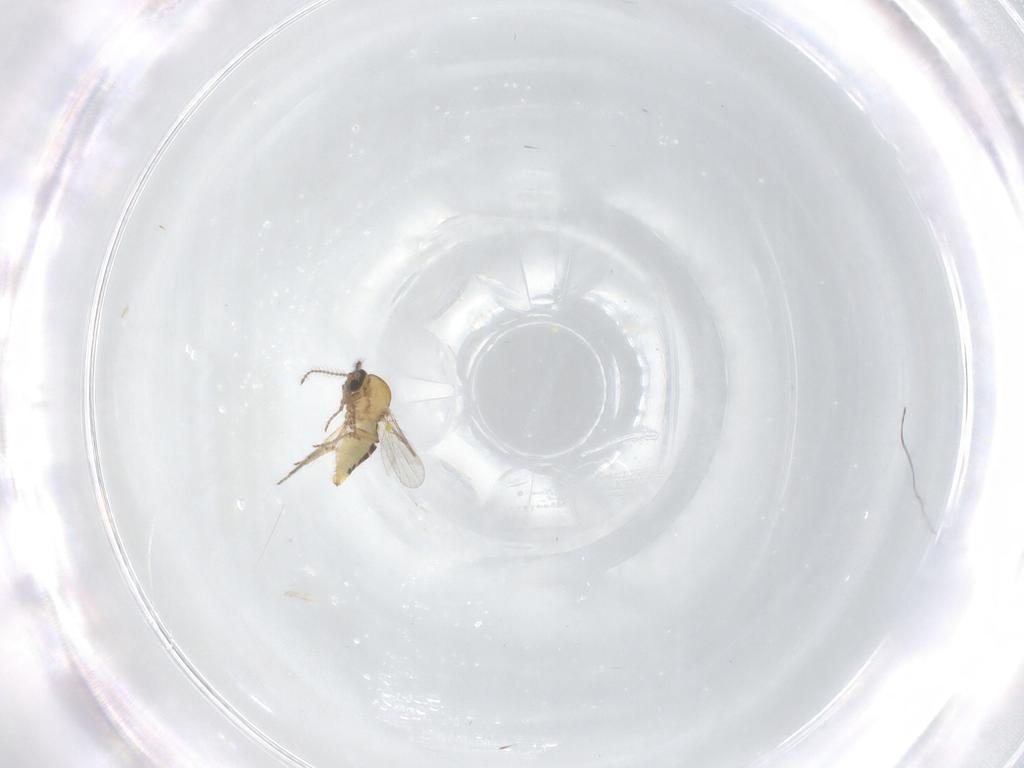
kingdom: Animalia
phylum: Arthropoda
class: Insecta
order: Diptera
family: Ceratopogonidae
